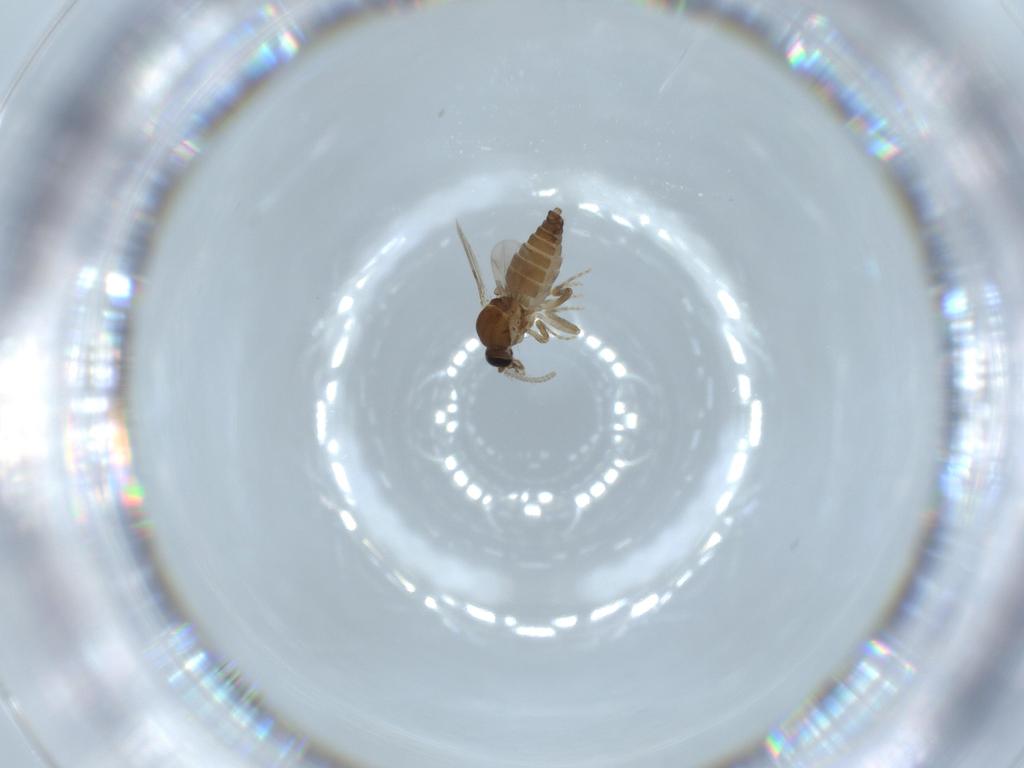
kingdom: Animalia
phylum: Arthropoda
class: Insecta
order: Diptera
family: Ceratopogonidae
